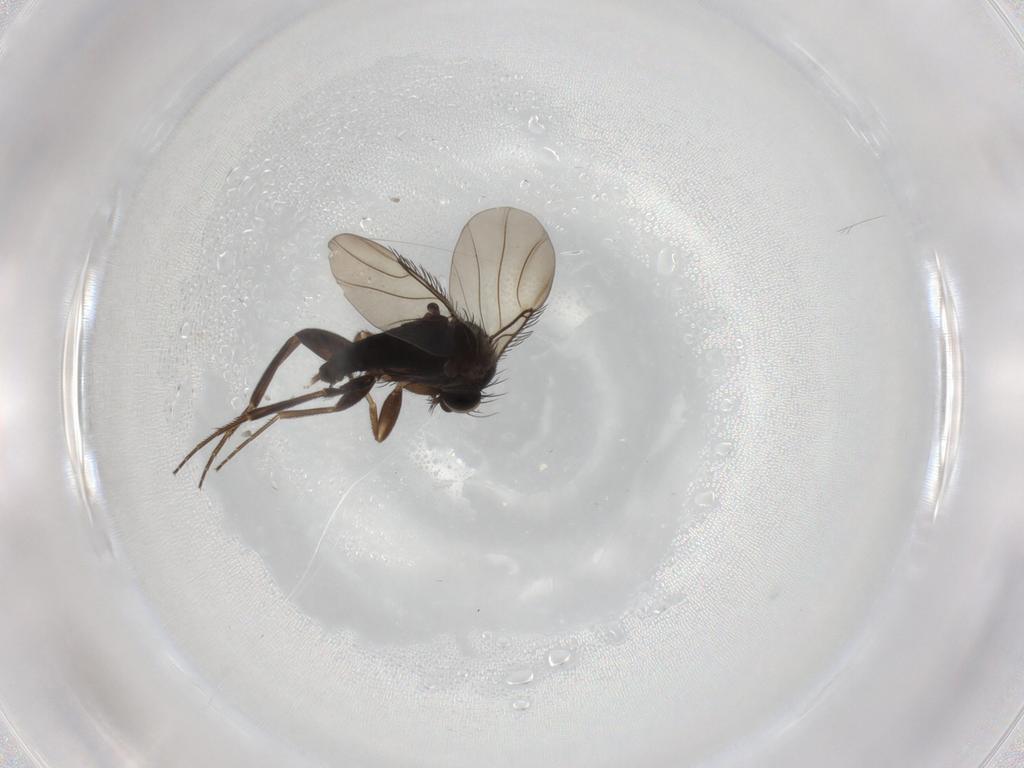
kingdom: Animalia
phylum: Arthropoda
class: Insecta
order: Diptera
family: Phoridae
